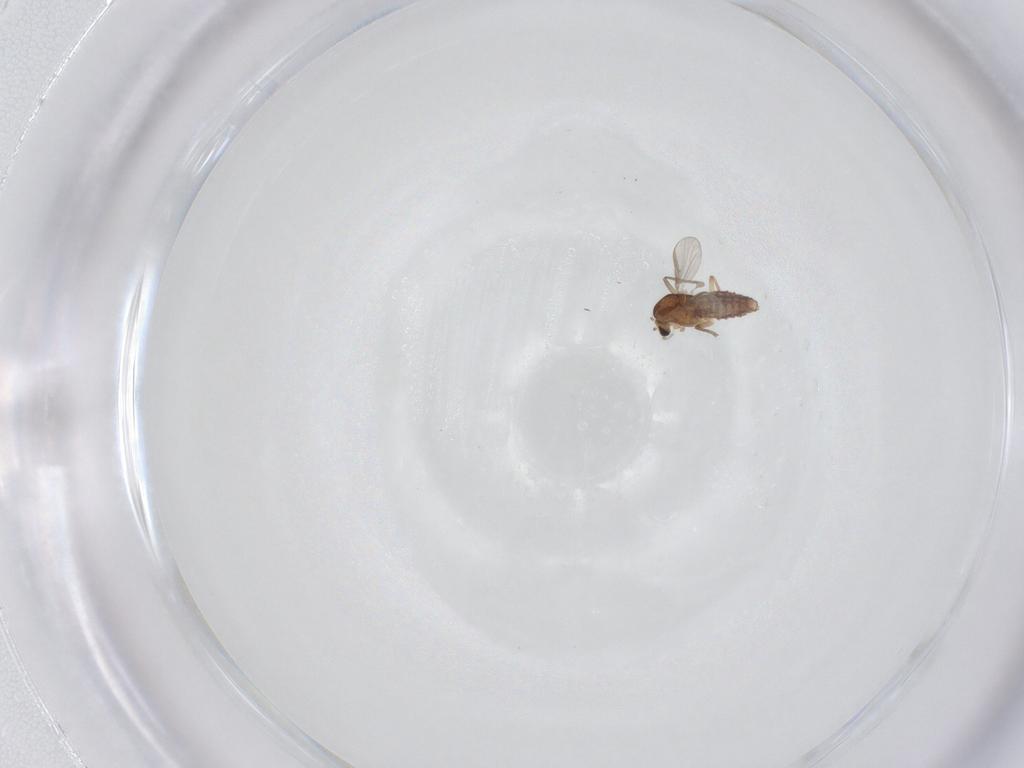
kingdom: Animalia
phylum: Arthropoda
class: Insecta
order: Diptera
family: Chironomidae
